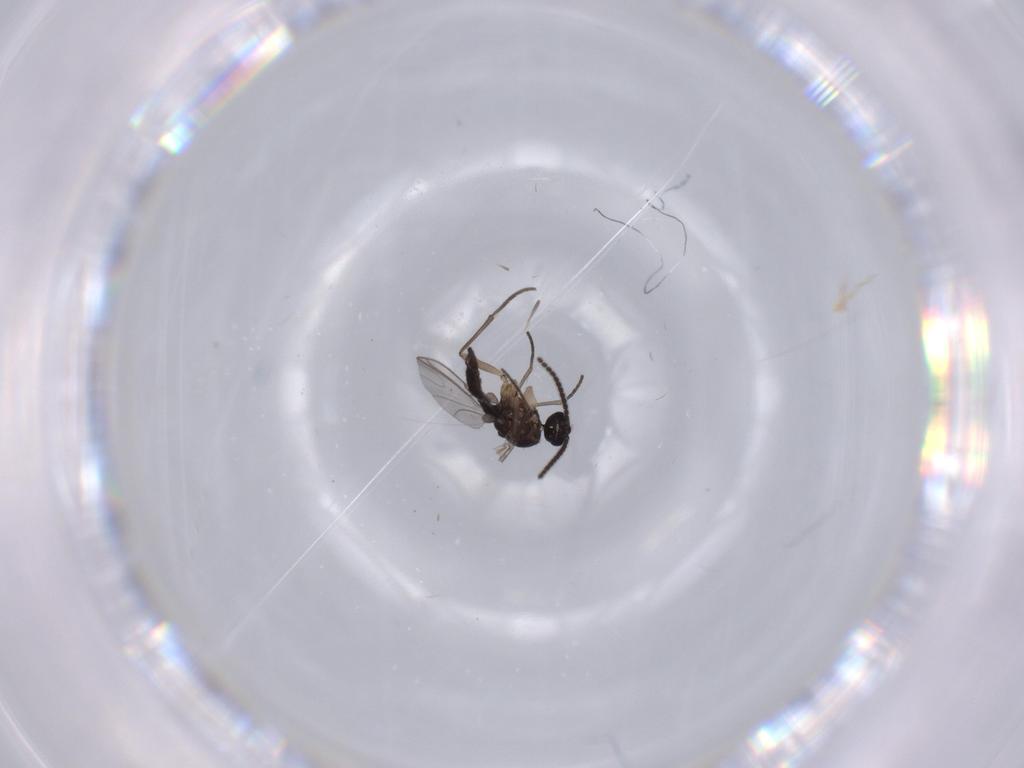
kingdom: Animalia
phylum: Arthropoda
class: Insecta
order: Diptera
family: Sciaridae
